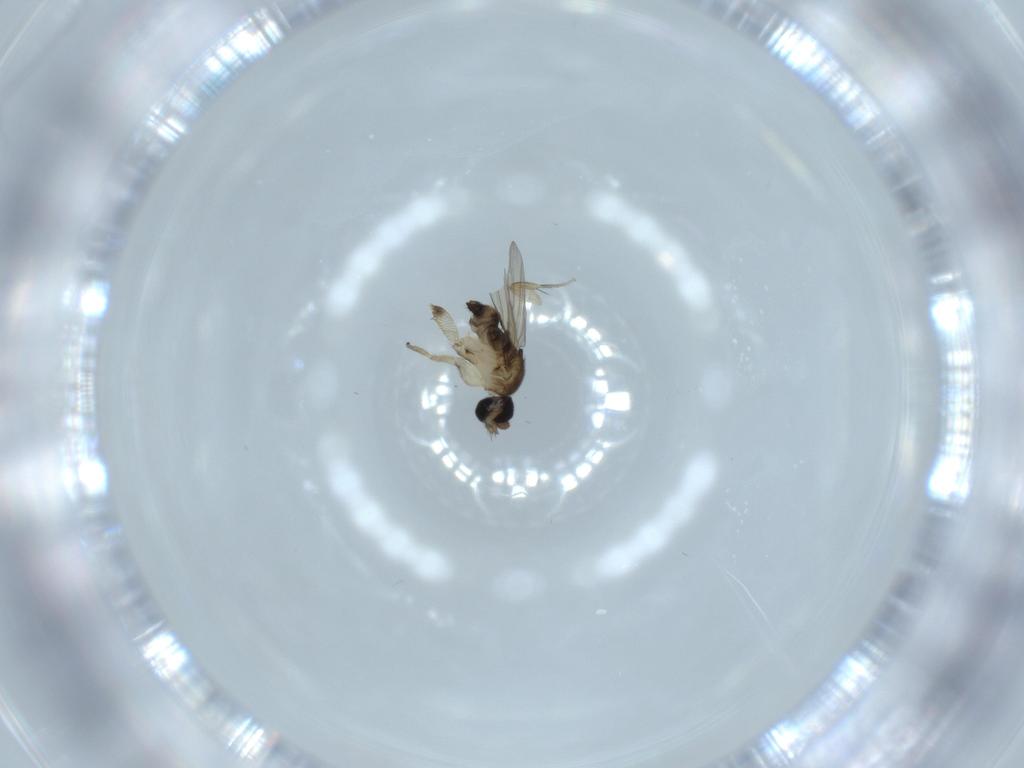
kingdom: Animalia
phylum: Arthropoda
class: Insecta
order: Diptera
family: Phoridae
